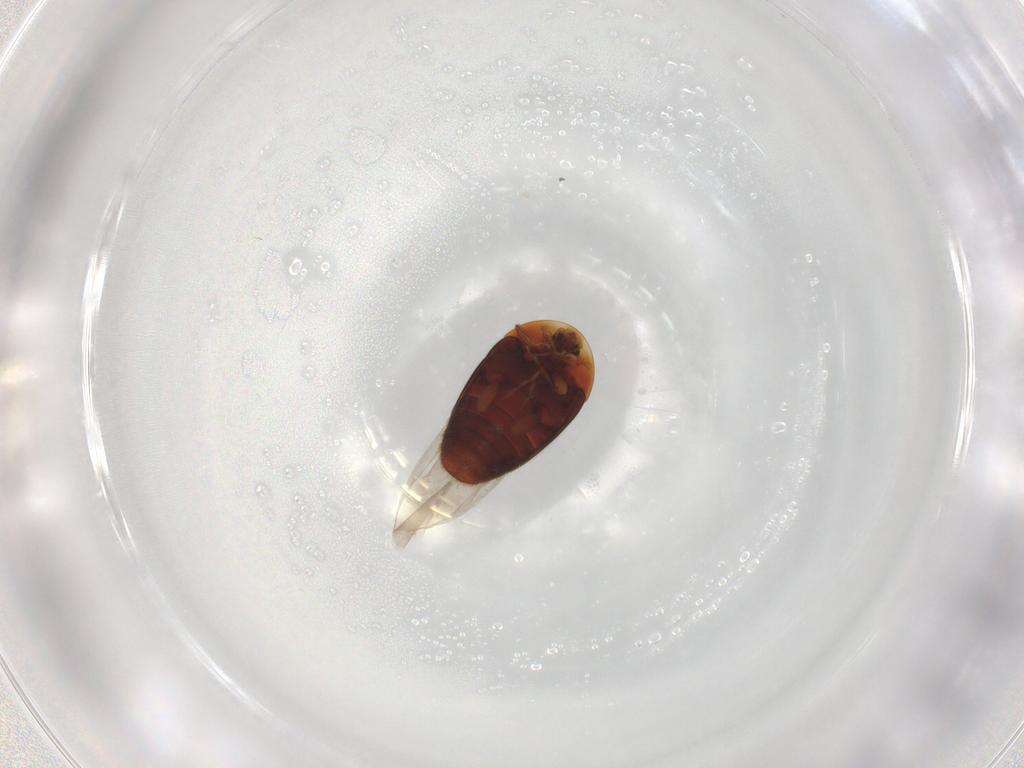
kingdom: Animalia
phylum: Arthropoda
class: Insecta
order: Coleoptera
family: Corylophidae
